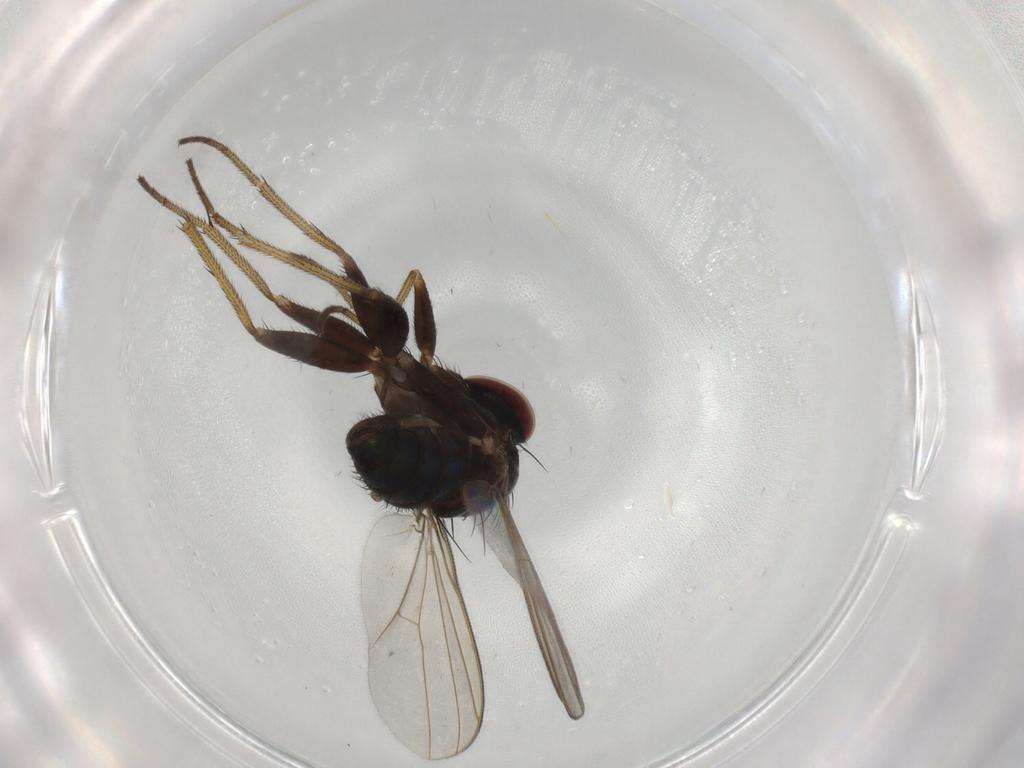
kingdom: Animalia
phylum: Arthropoda
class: Insecta
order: Diptera
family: Dolichopodidae
